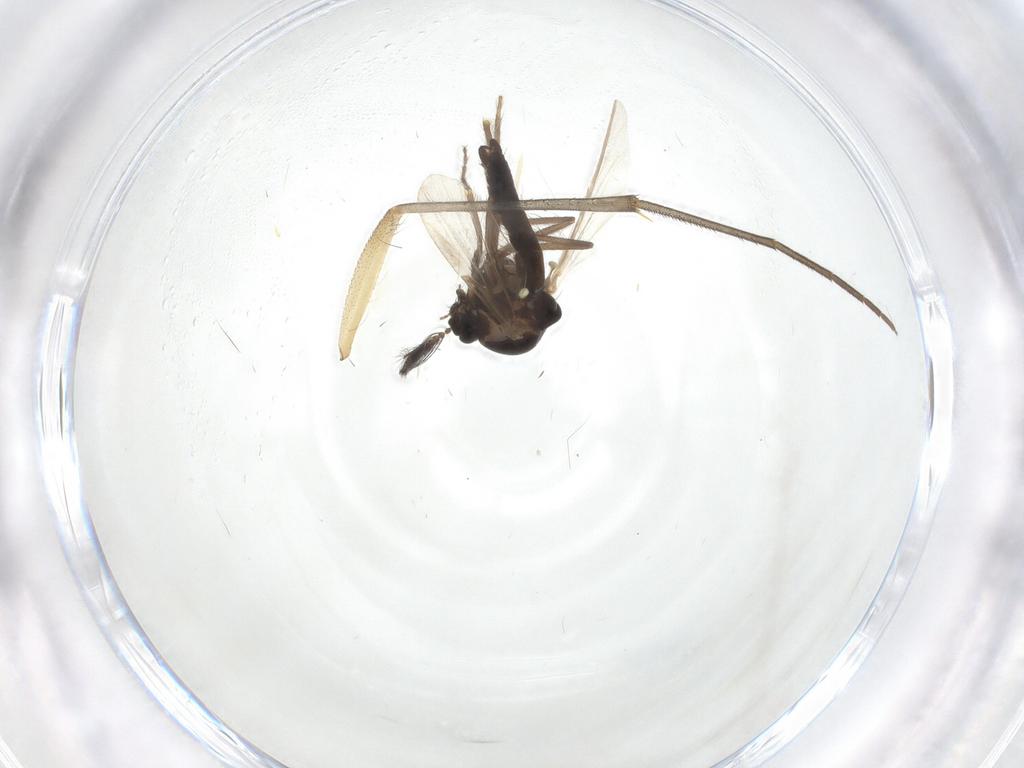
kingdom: Animalia
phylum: Arthropoda
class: Insecta
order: Diptera
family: Ceratopogonidae
